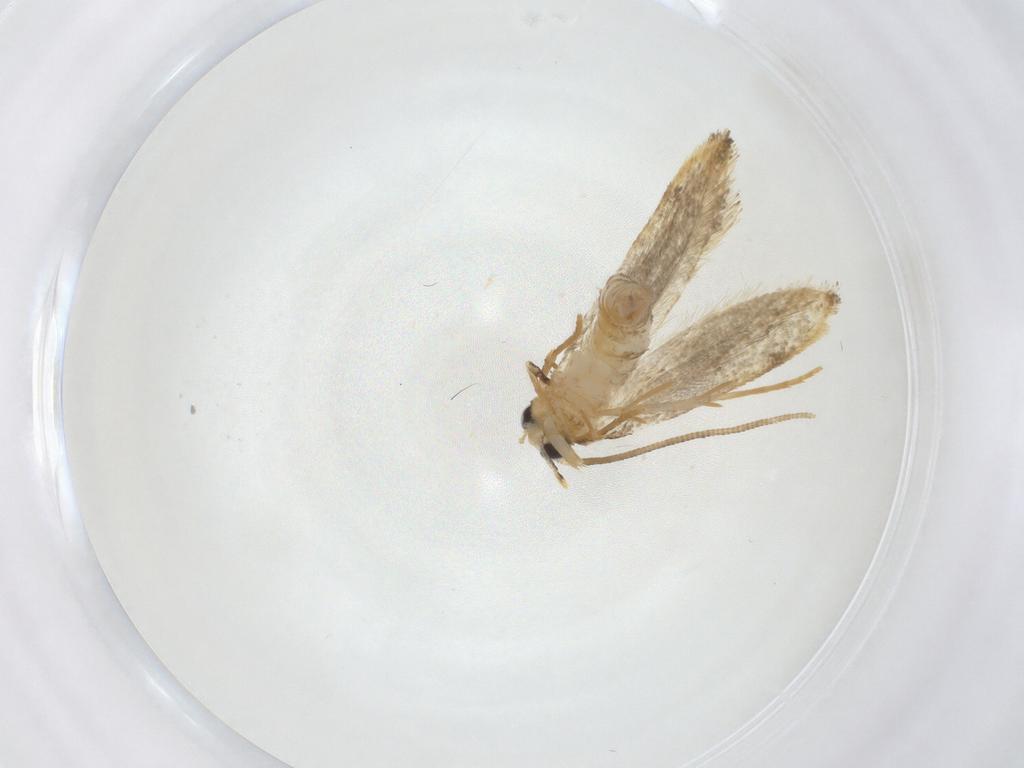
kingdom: Animalia
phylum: Arthropoda
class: Insecta
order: Lepidoptera
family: Tineidae
